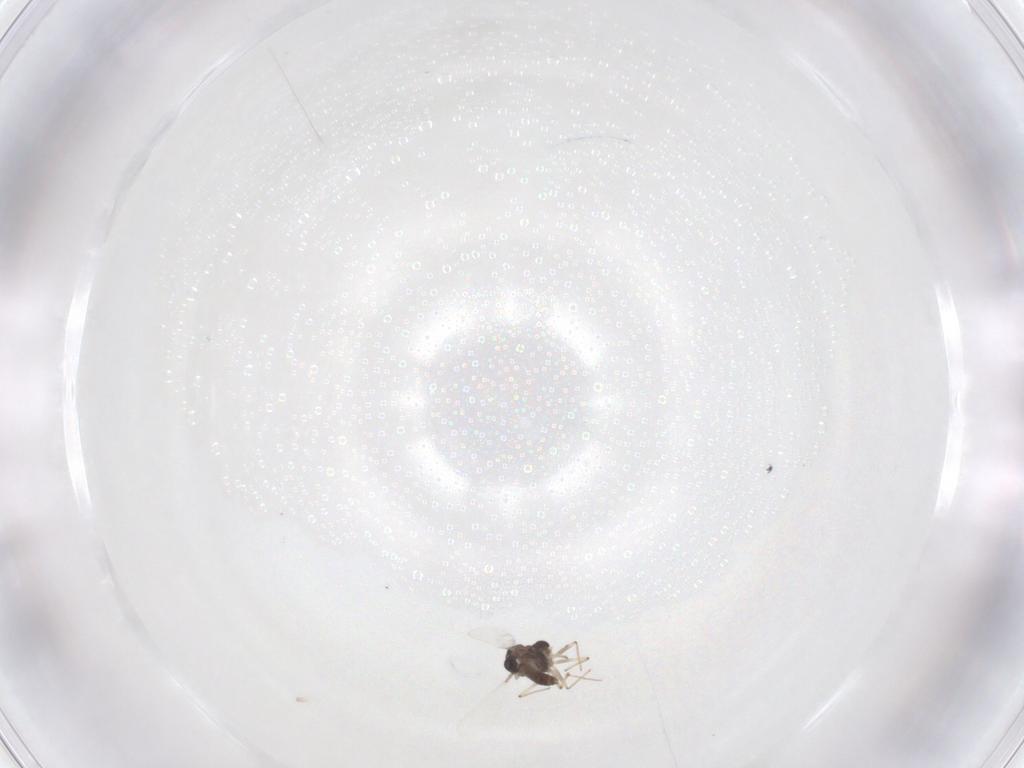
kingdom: Animalia
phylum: Arthropoda
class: Insecta
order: Diptera
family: Chironomidae
